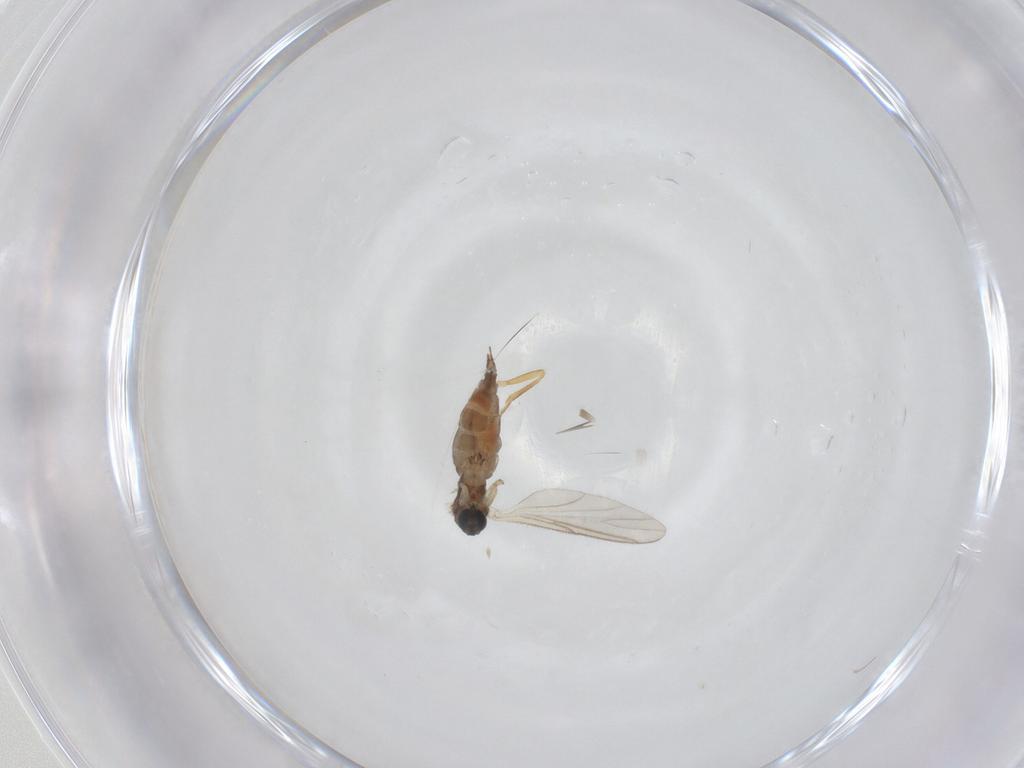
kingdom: Animalia
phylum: Arthropoda
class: Insecta
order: Diptera
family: Sciaridae
